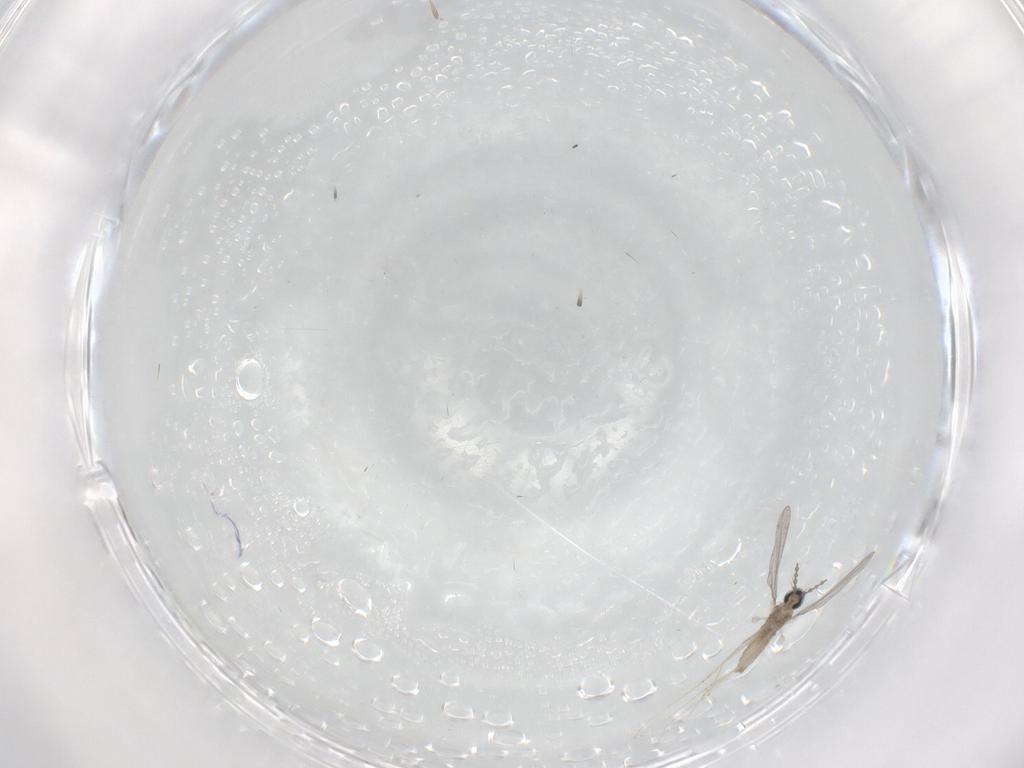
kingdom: Animalia
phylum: Arthropoda
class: Insecta
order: Diptera
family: Cecidomyiidae
